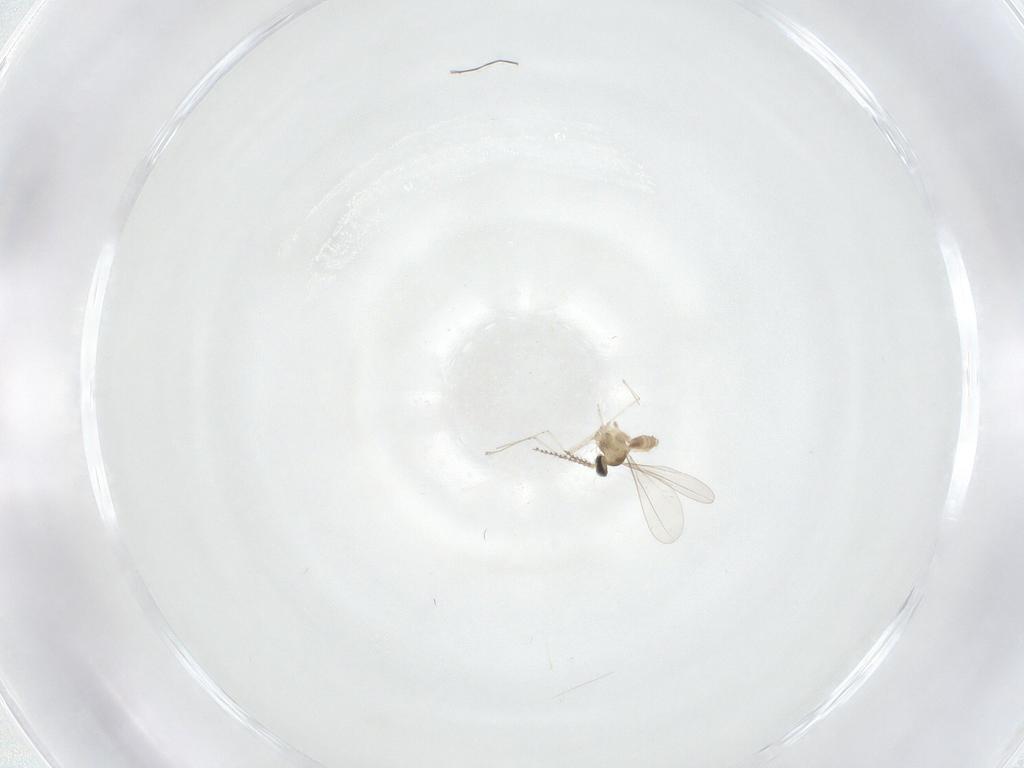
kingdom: Animalia
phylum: Arthropoda
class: Insecta
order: Diptera
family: Cecidomyiidae
